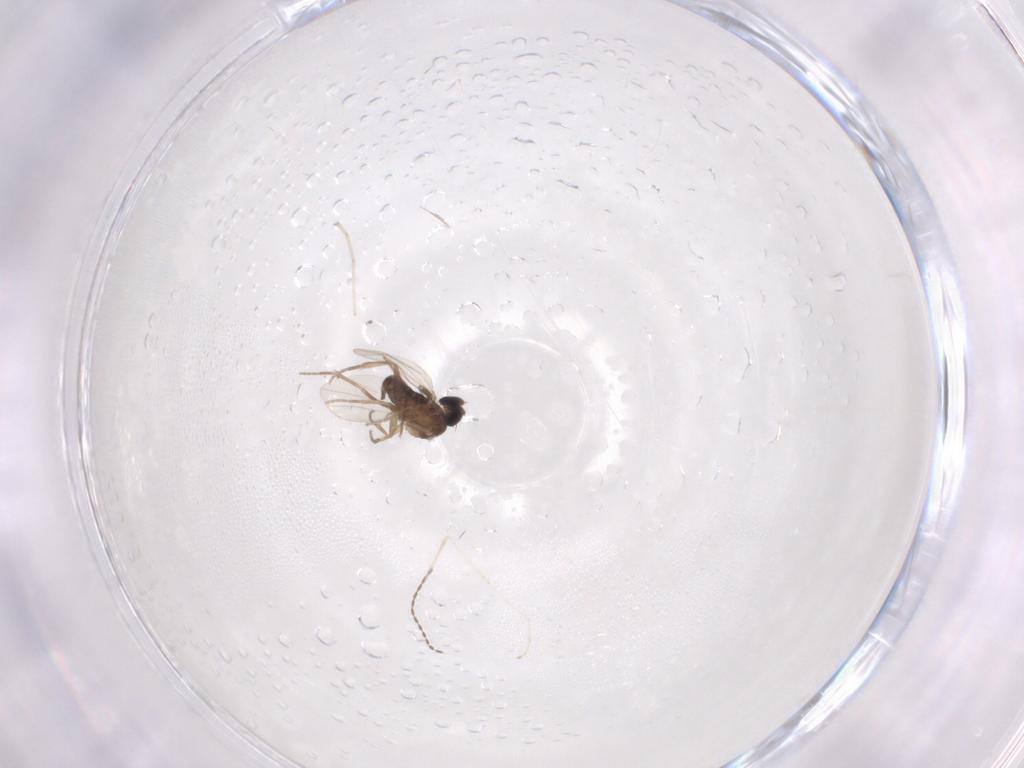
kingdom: Animalia
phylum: Arthropoda
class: Insecta
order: Diptera
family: Phoridae
